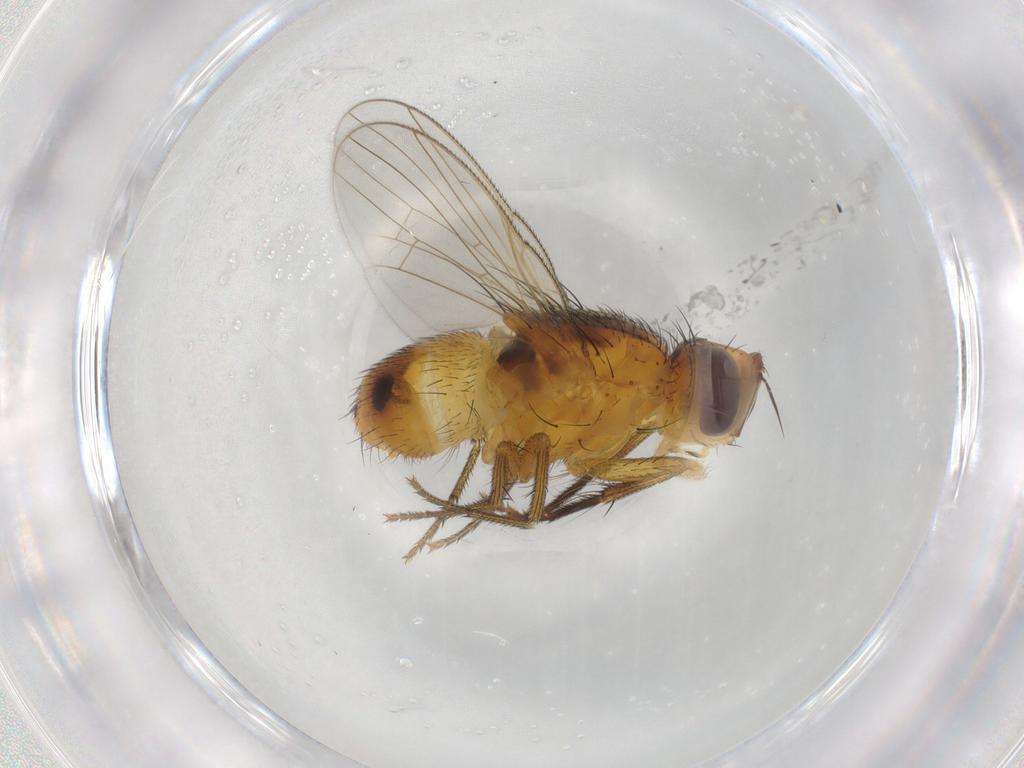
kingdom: Animalia
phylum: Arthropoda
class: Insecta
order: Diptera
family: Muscidae
